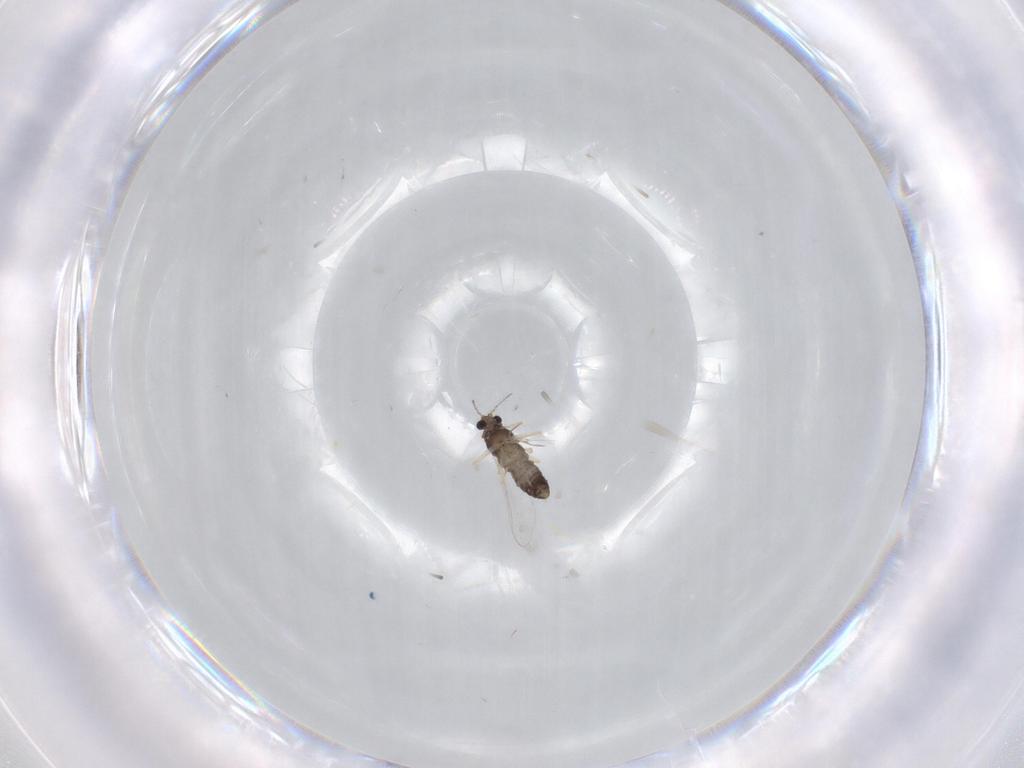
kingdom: Animalia
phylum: Arthropoda
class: Insecta
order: Diptera
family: Chironomidae
